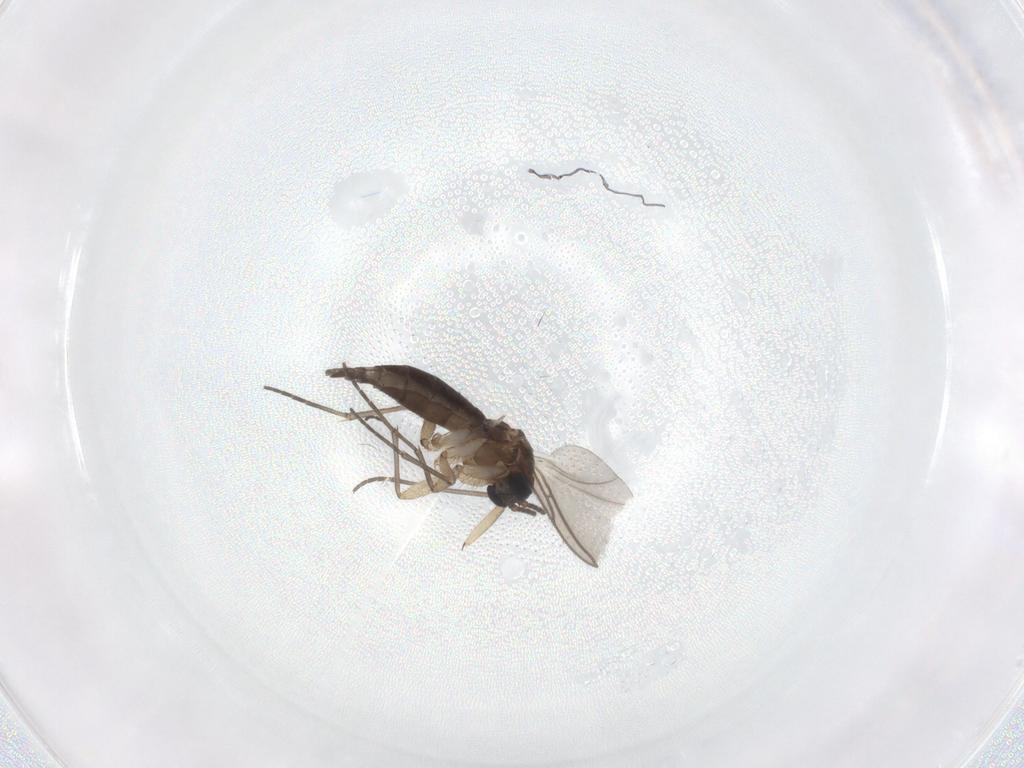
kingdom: Animalia
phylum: Arthropoda
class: Insecta
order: Diptera
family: Sciaridae
